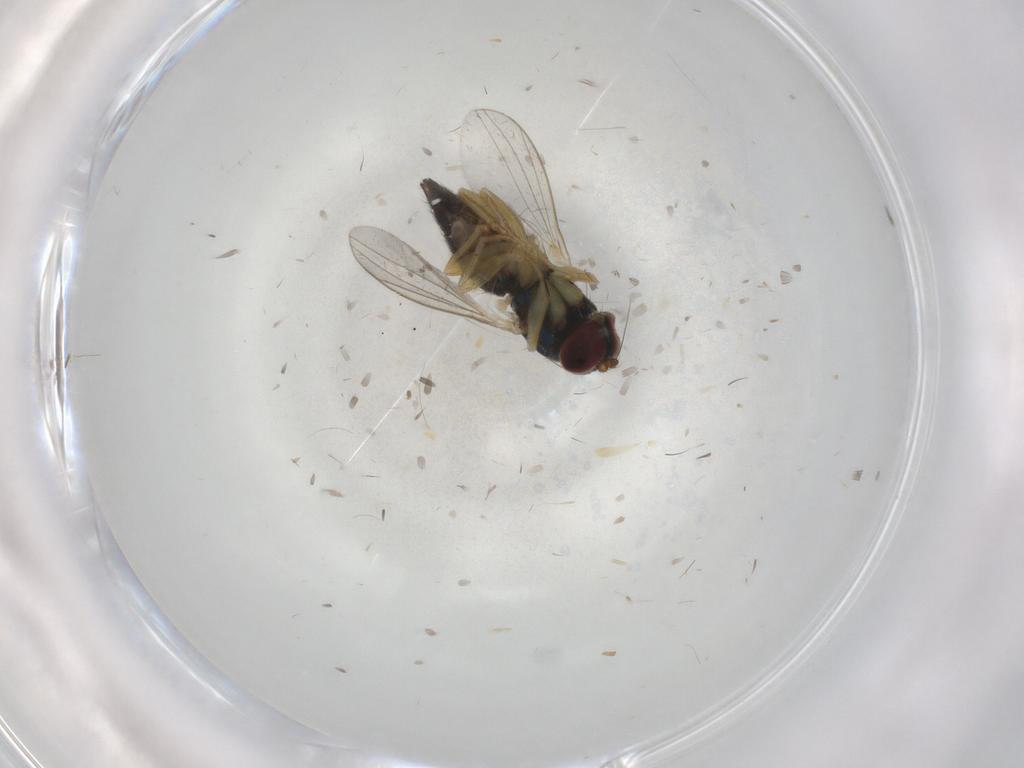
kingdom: Animalia
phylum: Arthropoda
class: Insecta
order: Diptera
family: Dolichopodidae
